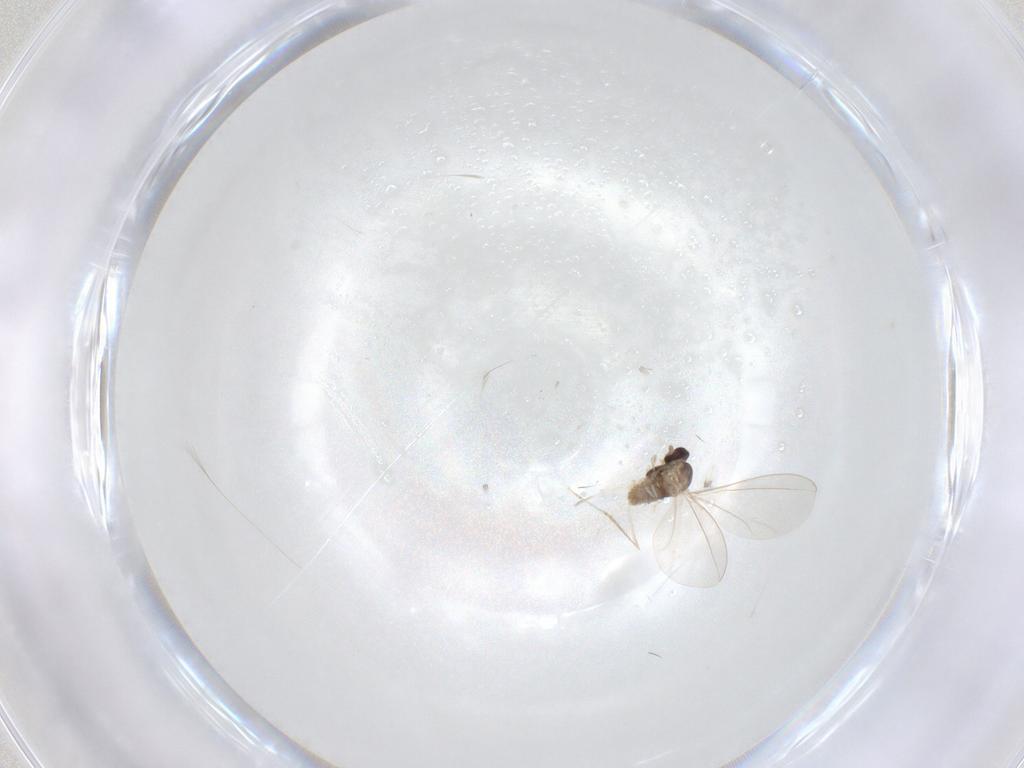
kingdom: Animalia
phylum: Arthropoda
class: Insecta
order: Diptera
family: Cecidomyiidae
